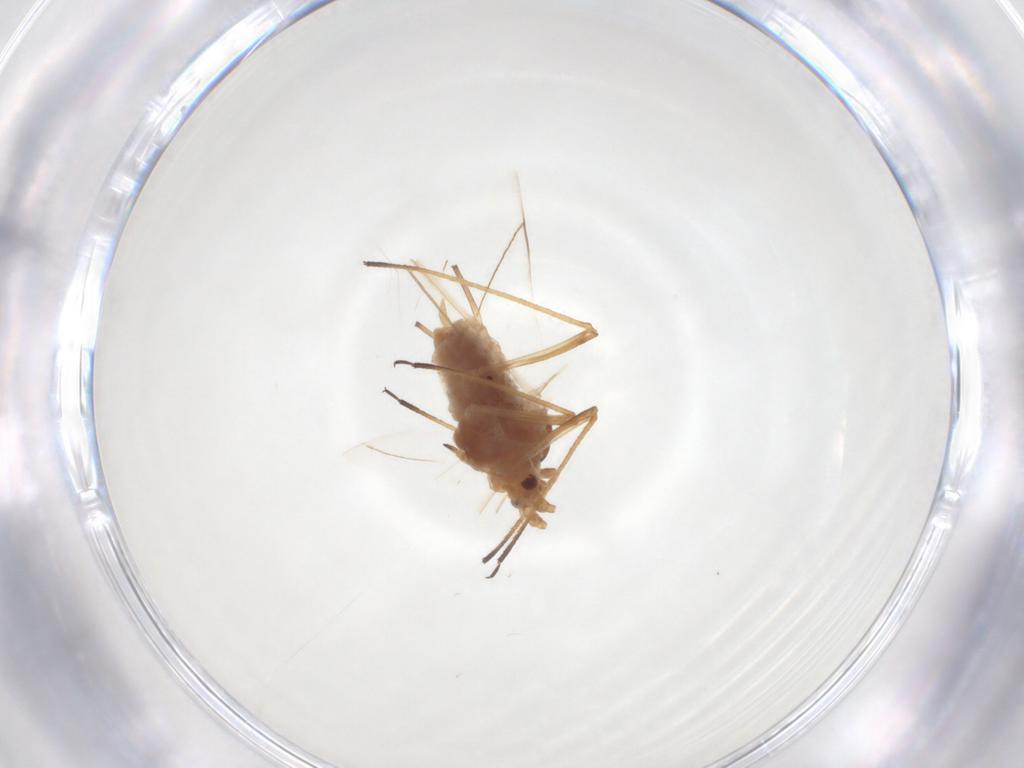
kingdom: Animalia
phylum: Arthropoda
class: Insecta
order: Hemiptera
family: Aphididae
